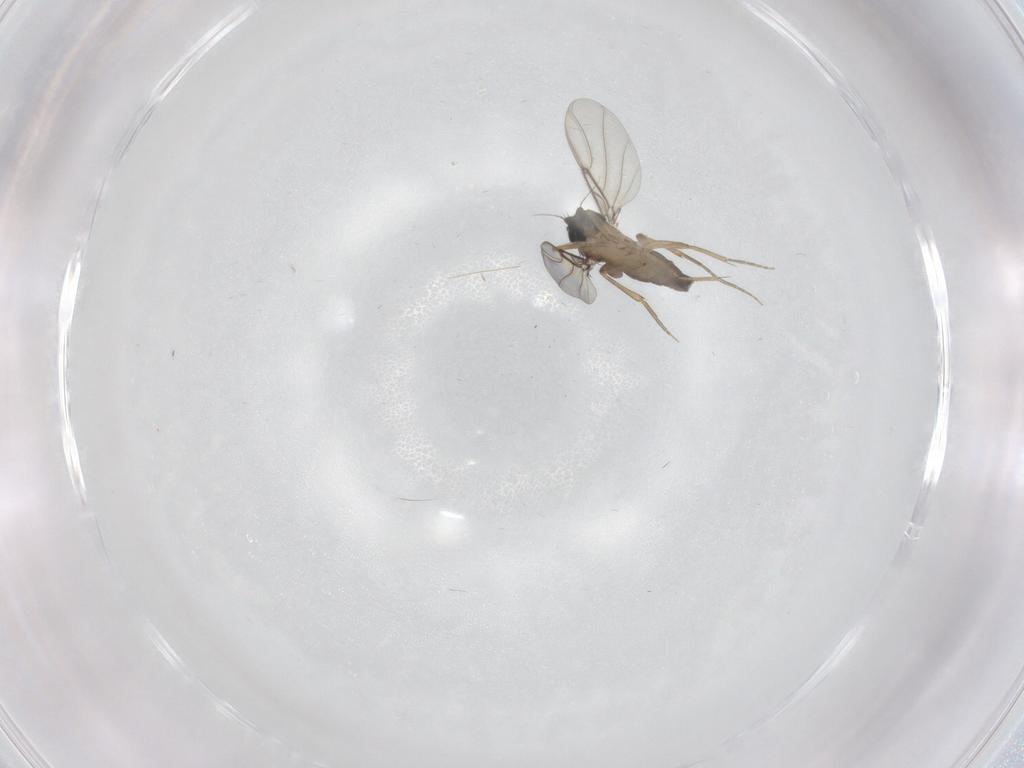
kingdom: Animalia
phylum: Arthropoda
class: Insecta
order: Diptera
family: Phoridae
